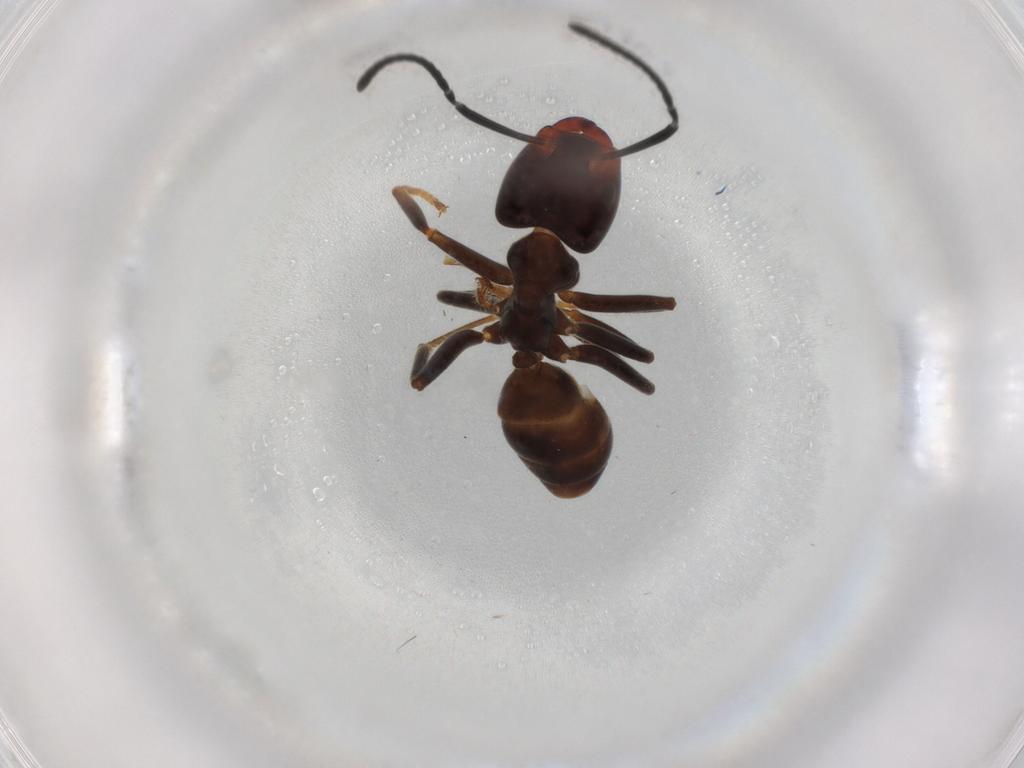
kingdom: Animalia
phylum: Arthropoda
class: Insecta
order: Hymenoptera
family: Formicidae
